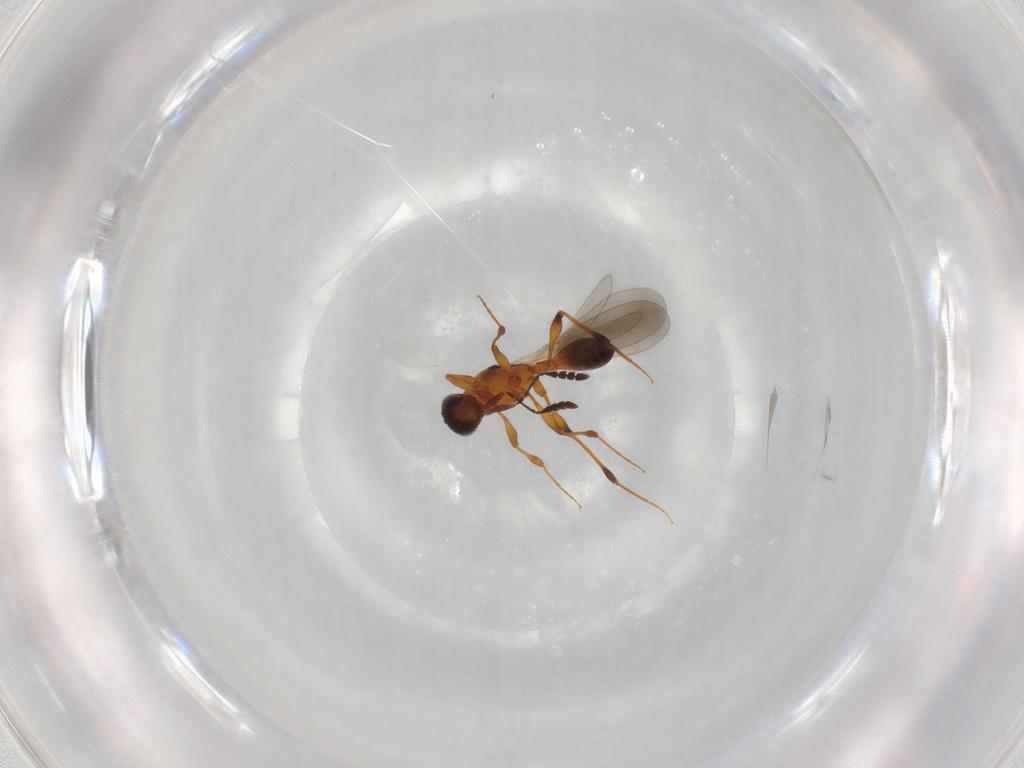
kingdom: Animalia
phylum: Arthropoda
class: Insecta
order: Hymenoptera
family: Platygastridae
